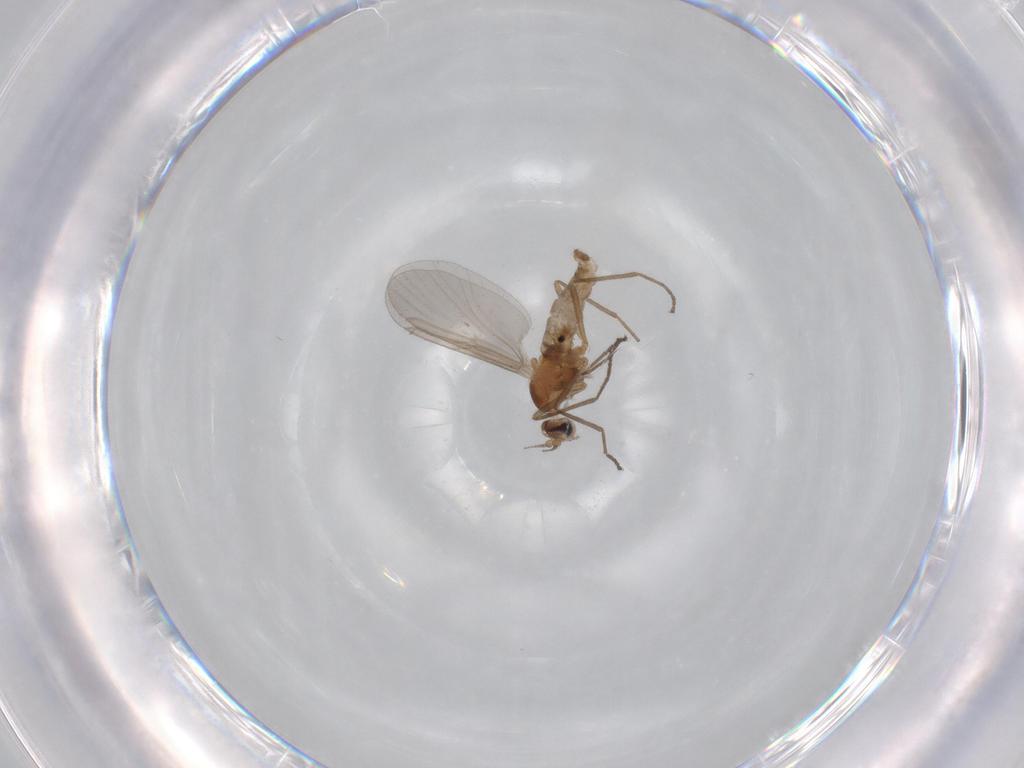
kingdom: Animalia
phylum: Arthropoda
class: Insecta
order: Diptera
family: Cecidomyiidae
